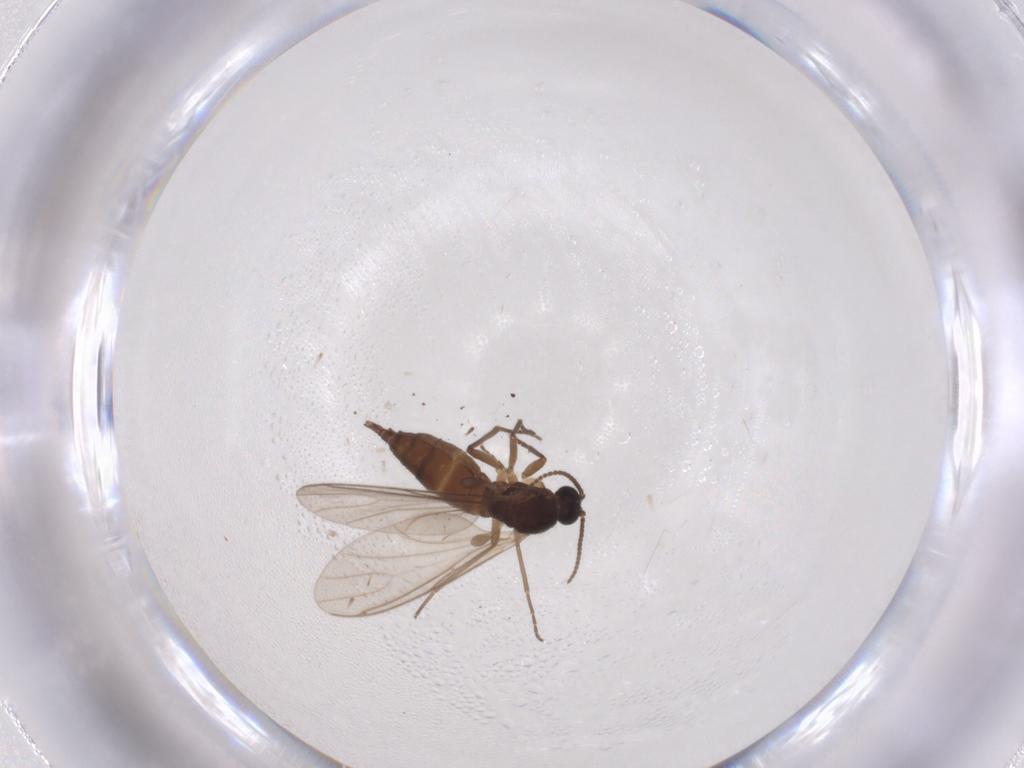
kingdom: Animalia
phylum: Arthropoda
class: Insecta
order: Diptera
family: Sciaridae
